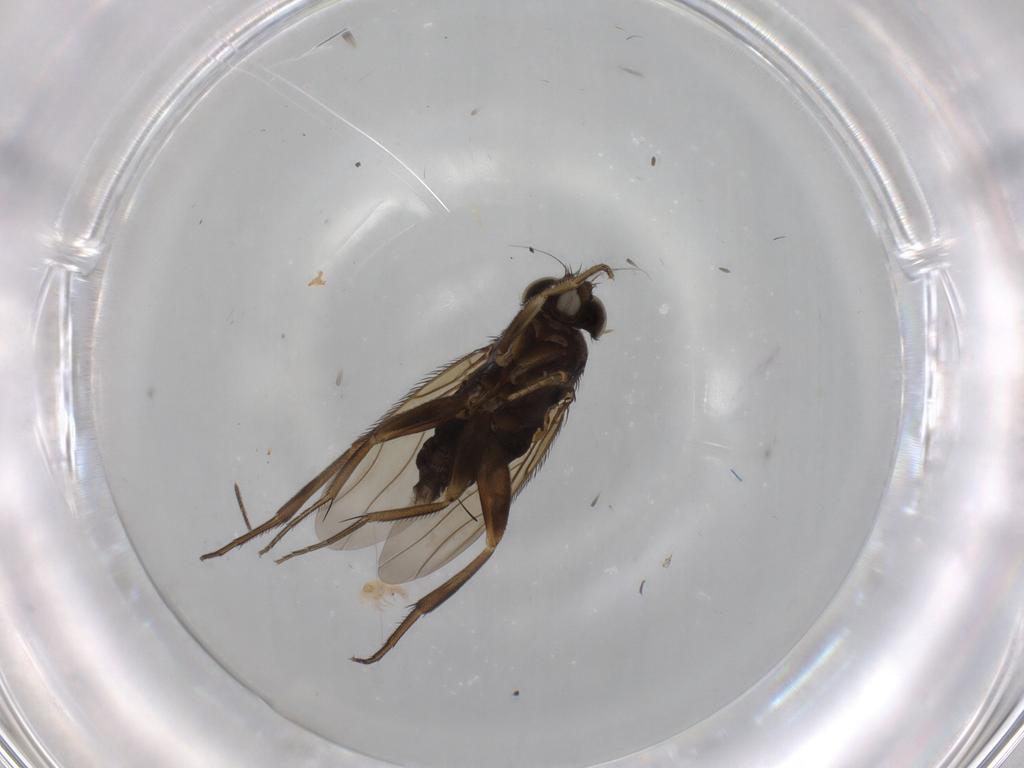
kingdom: Animalia
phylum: Arthropoda
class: Insecta
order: Diptera
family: Phoridae
